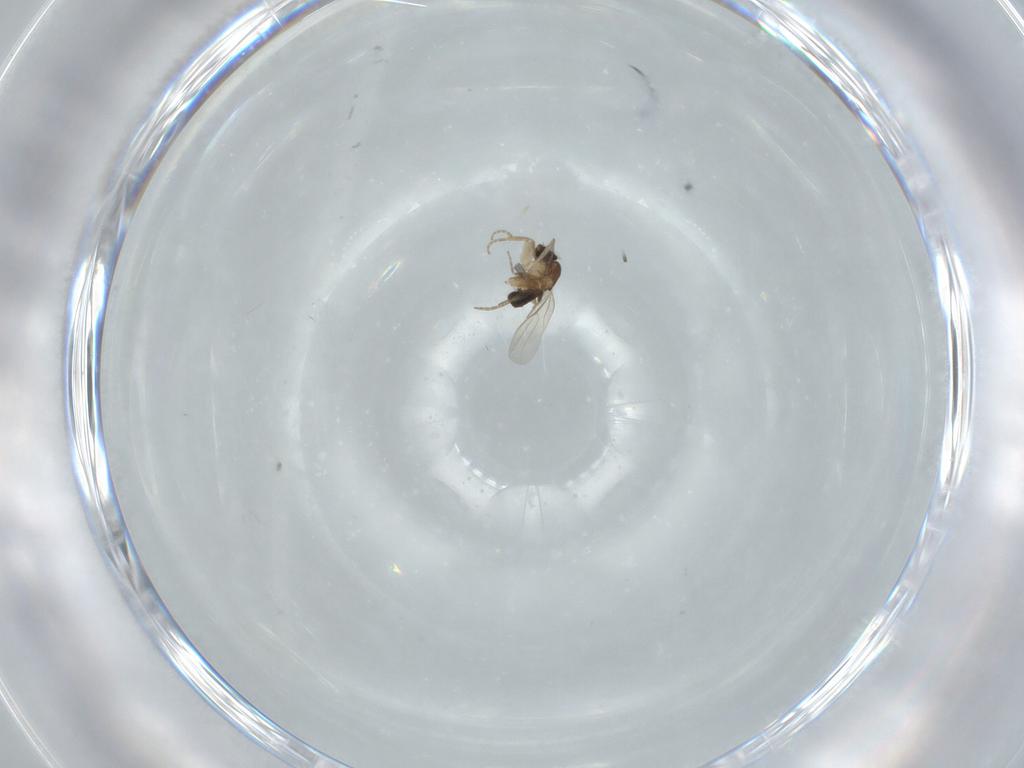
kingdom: Animalia
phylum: Arthropoda
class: Insecta
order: Diptera
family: Phoridae
